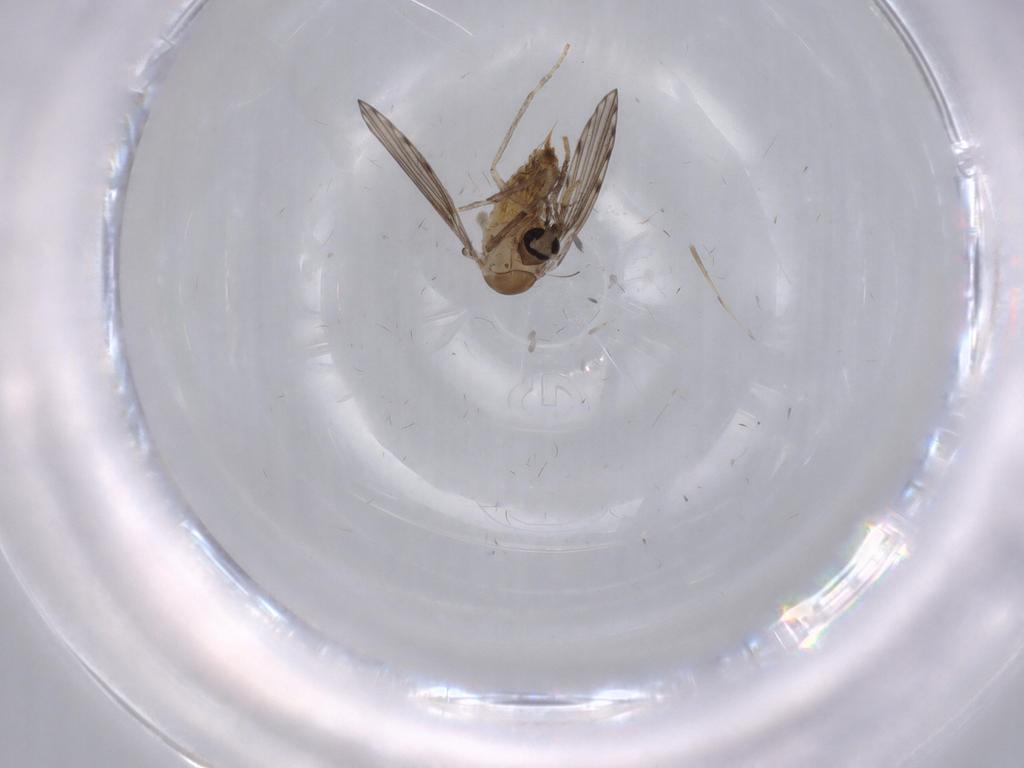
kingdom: Animalia
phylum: Arthropoda
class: Insecta
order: Diptera
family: Psychodidae
